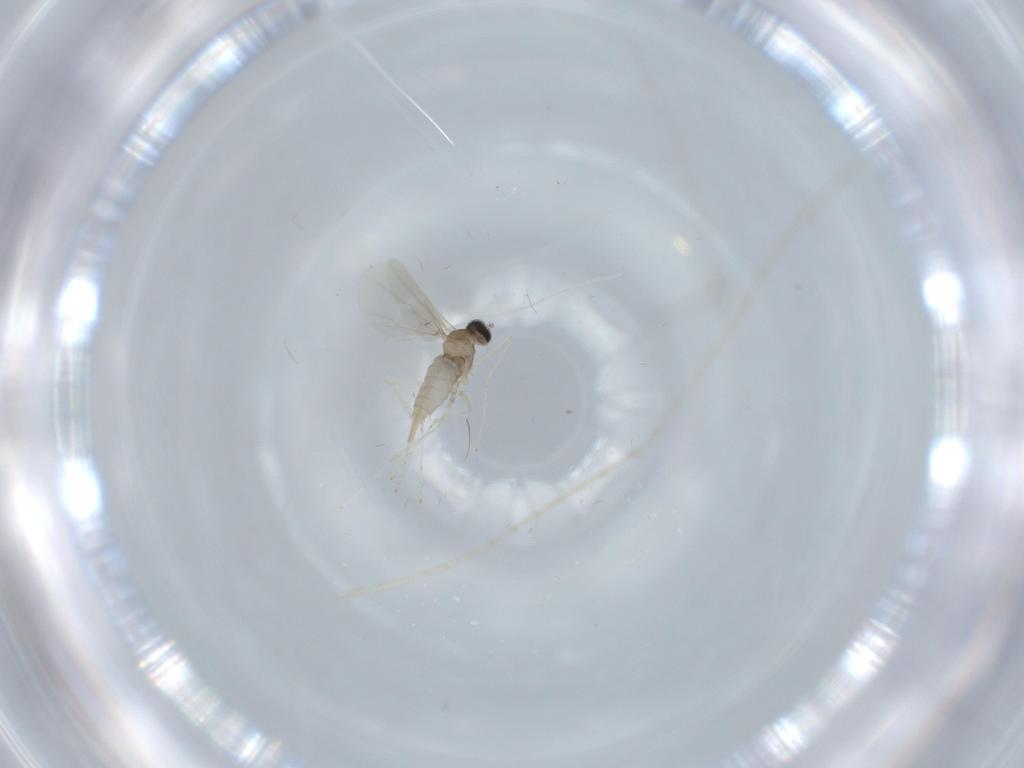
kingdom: Animalia
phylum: Arthropoda
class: Insecta
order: Diptera
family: Cecidomyiidae
